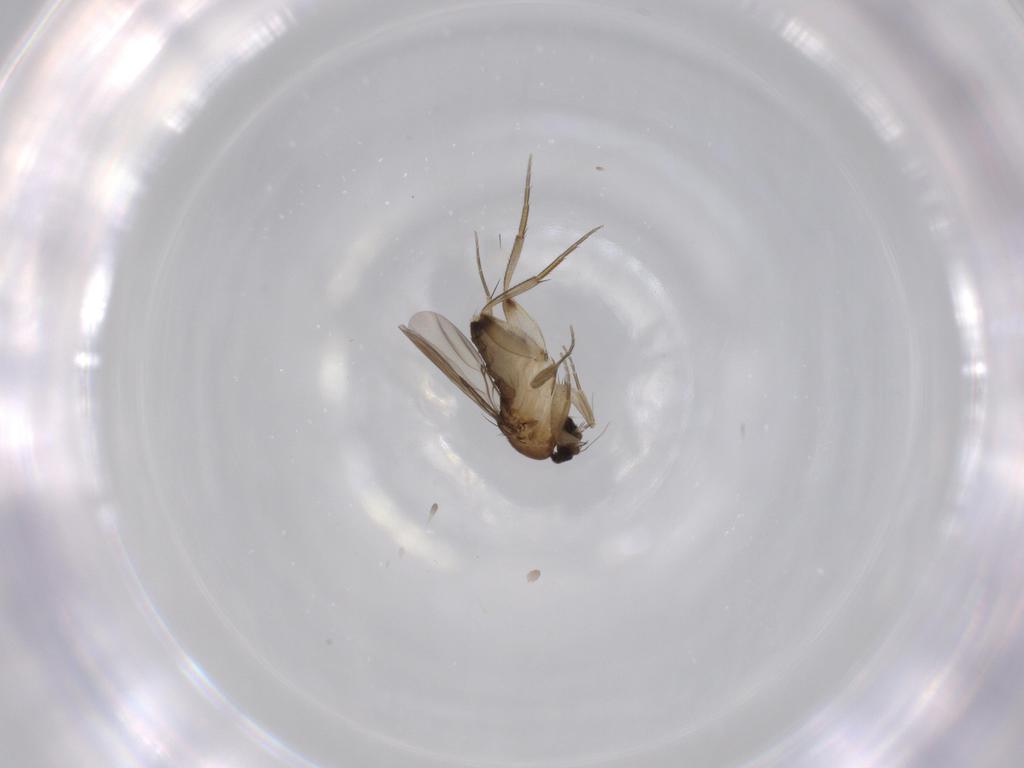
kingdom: Animalia
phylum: Arthropoda
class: Insecta
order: Diptera
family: Phoridae
